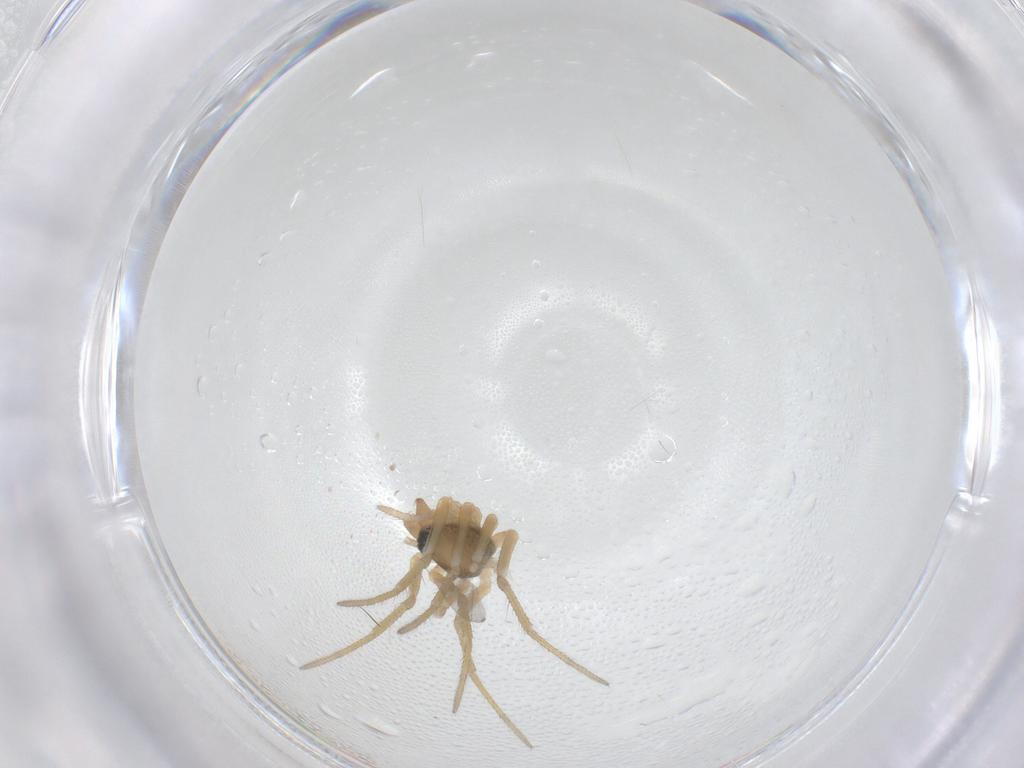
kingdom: Animalia
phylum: Arthropoda
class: Arachnida
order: Araneae
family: Linyphiidae
